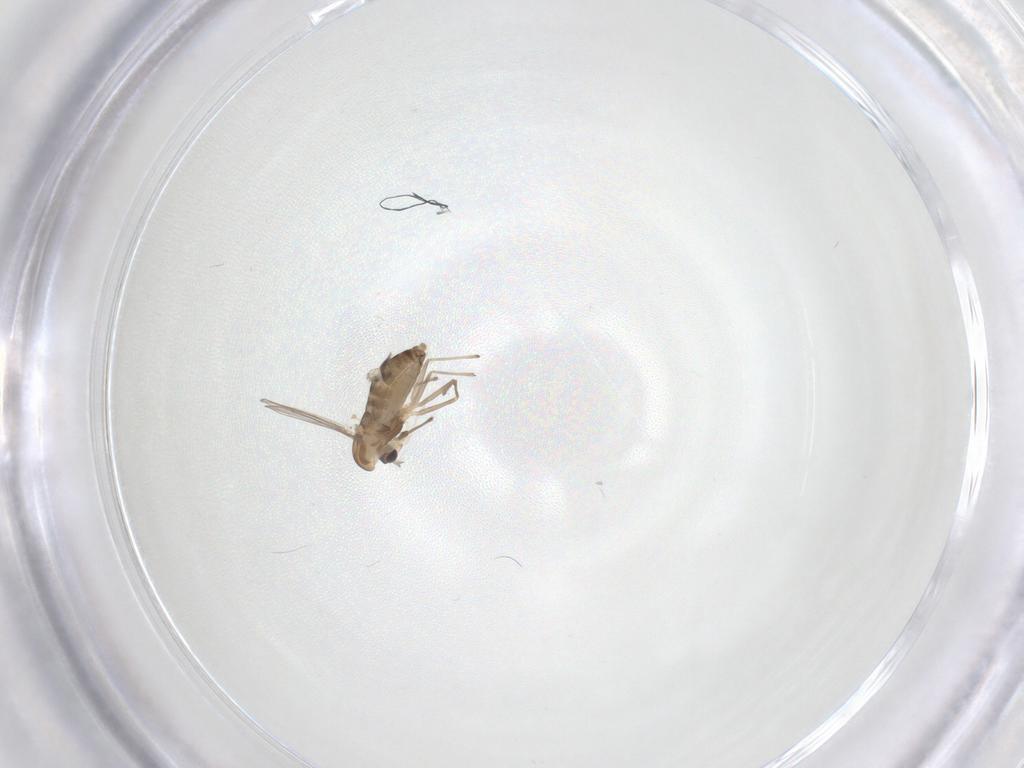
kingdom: Animalia
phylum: Arthropoda
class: Insecta
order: Diptera
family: Chironomidae
